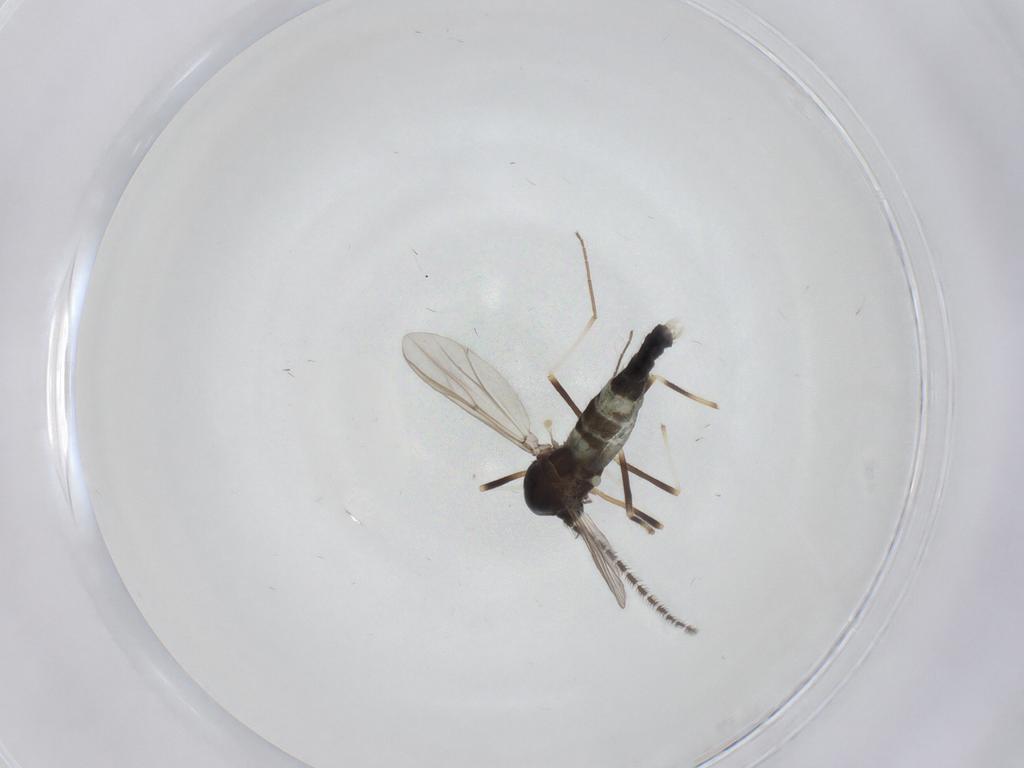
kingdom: Animalia
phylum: Arthropoda
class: Insecta
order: Diptera
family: Chironomidae
